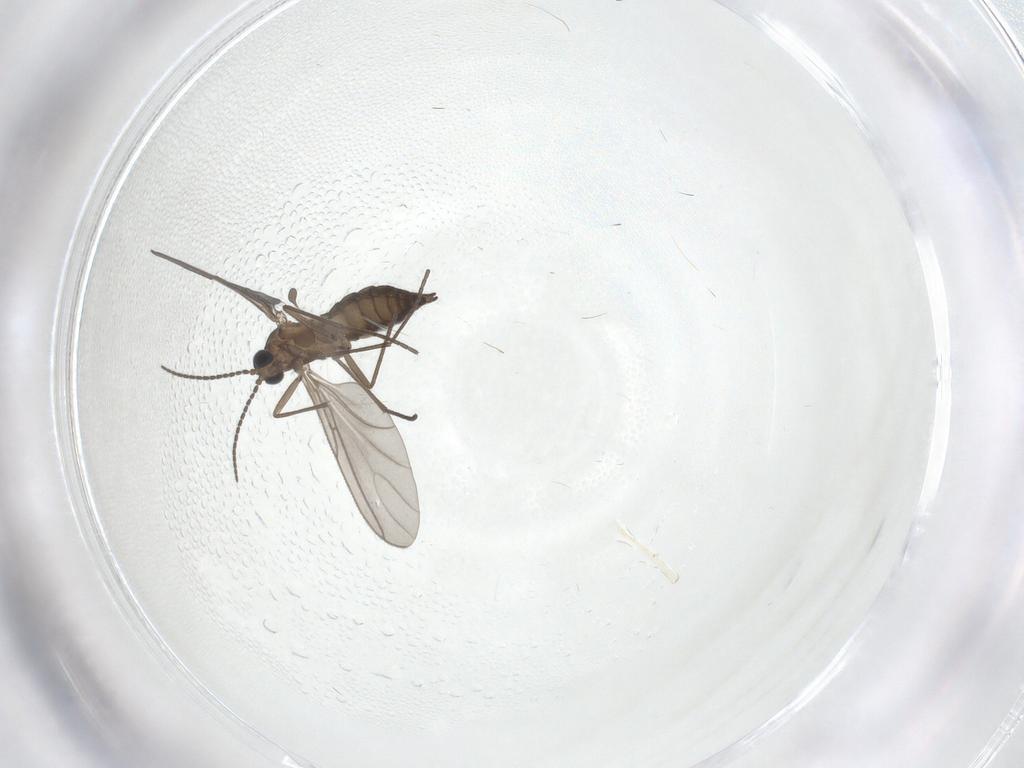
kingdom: Animalia
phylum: Arthropoda
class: Insecta
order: Diptera
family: Sciaridae
